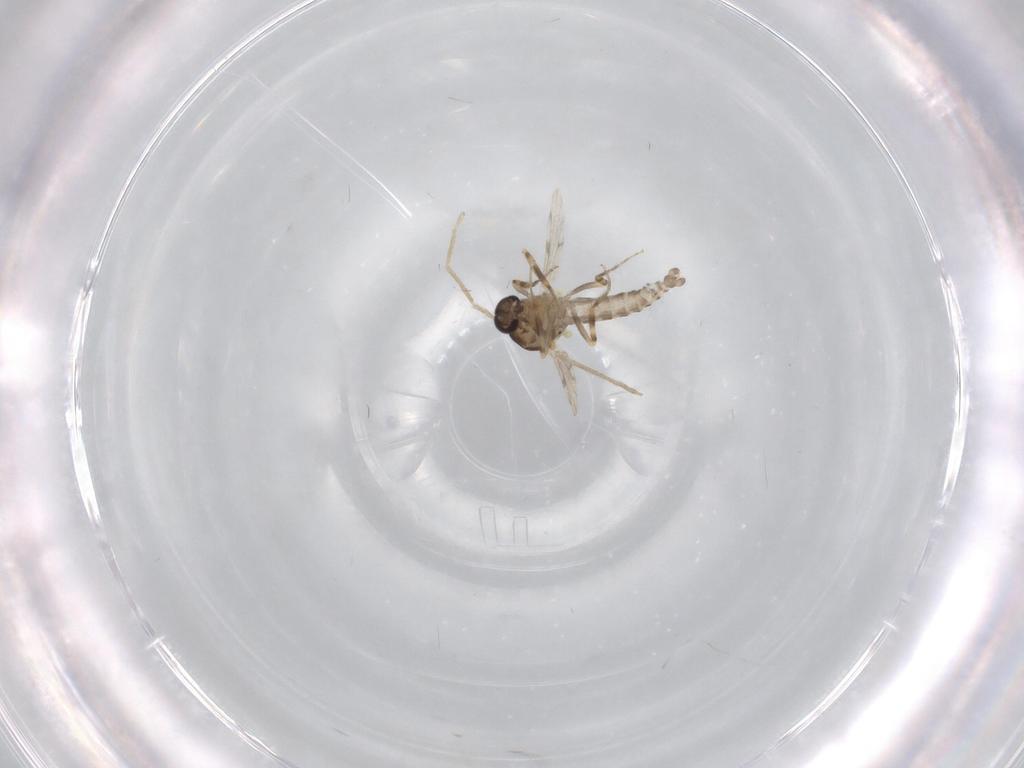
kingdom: Animalia
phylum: Arthropoda
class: Insecta
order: Diptera
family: Ceratopogonidae
